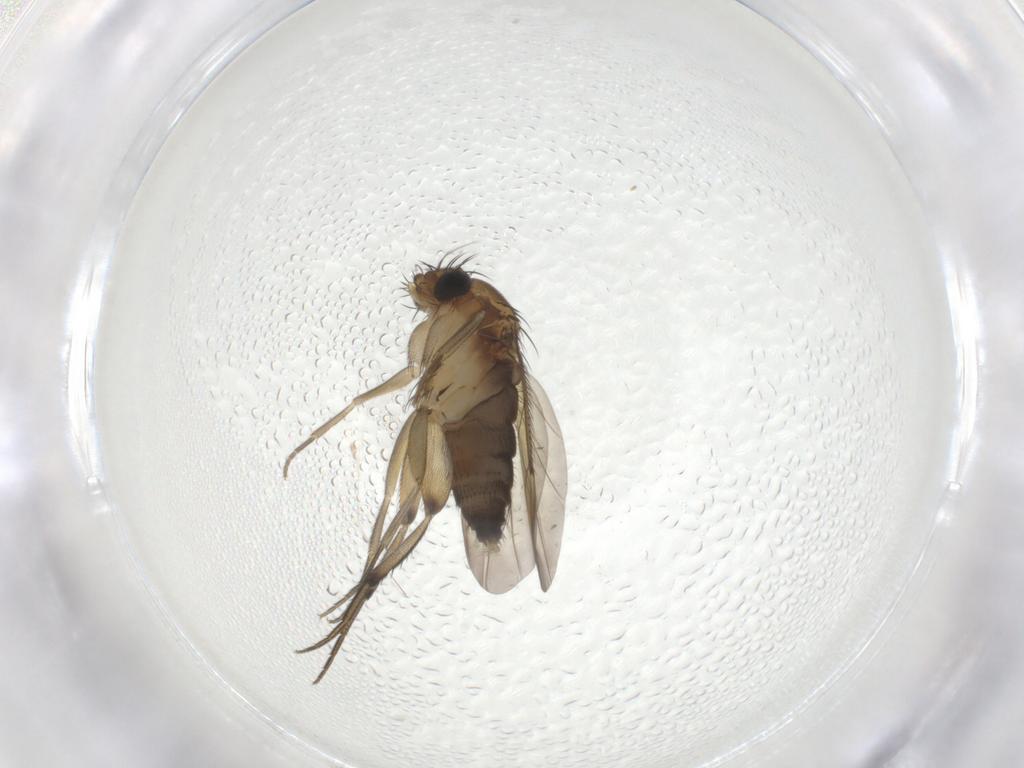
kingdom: Animalia
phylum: Arthropoda
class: Insecta
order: Diptera
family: Phoridae
